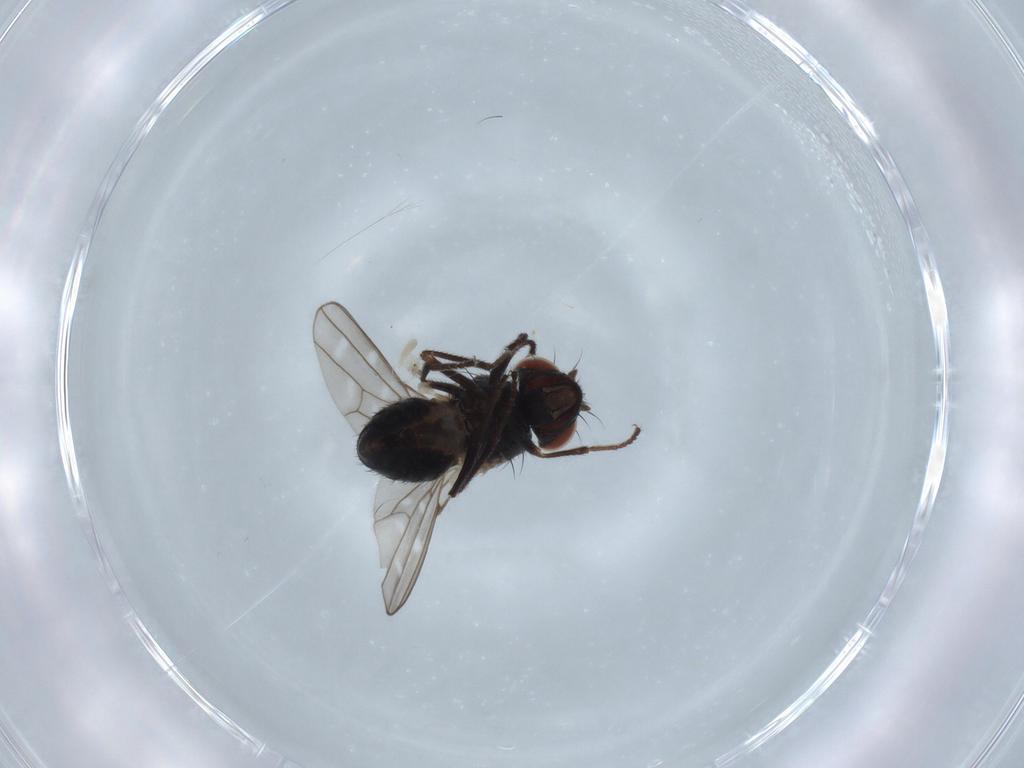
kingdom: Animalia
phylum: Arthropoda
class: Insecta
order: Diptera
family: Ephydridae
